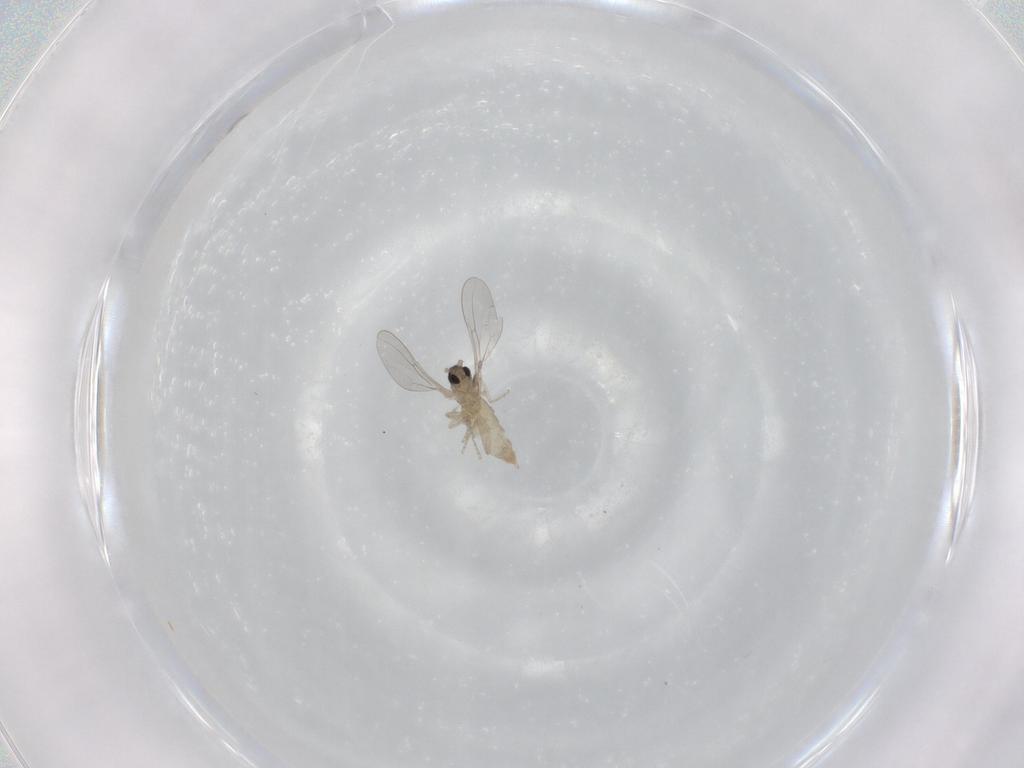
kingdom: Animalia
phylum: Arthropoda
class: Insecta
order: Diptera
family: Cecidomyiidae
